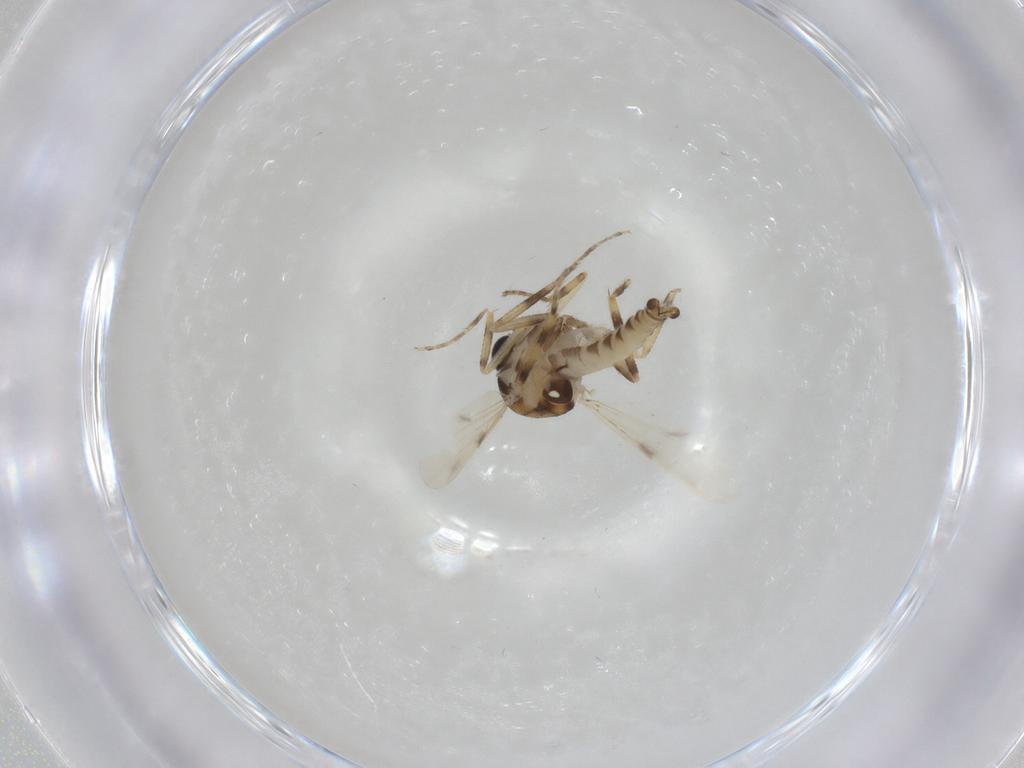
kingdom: Animalia
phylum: Arthropoda
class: Insecta
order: Diptera
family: Ceratopogonidae
